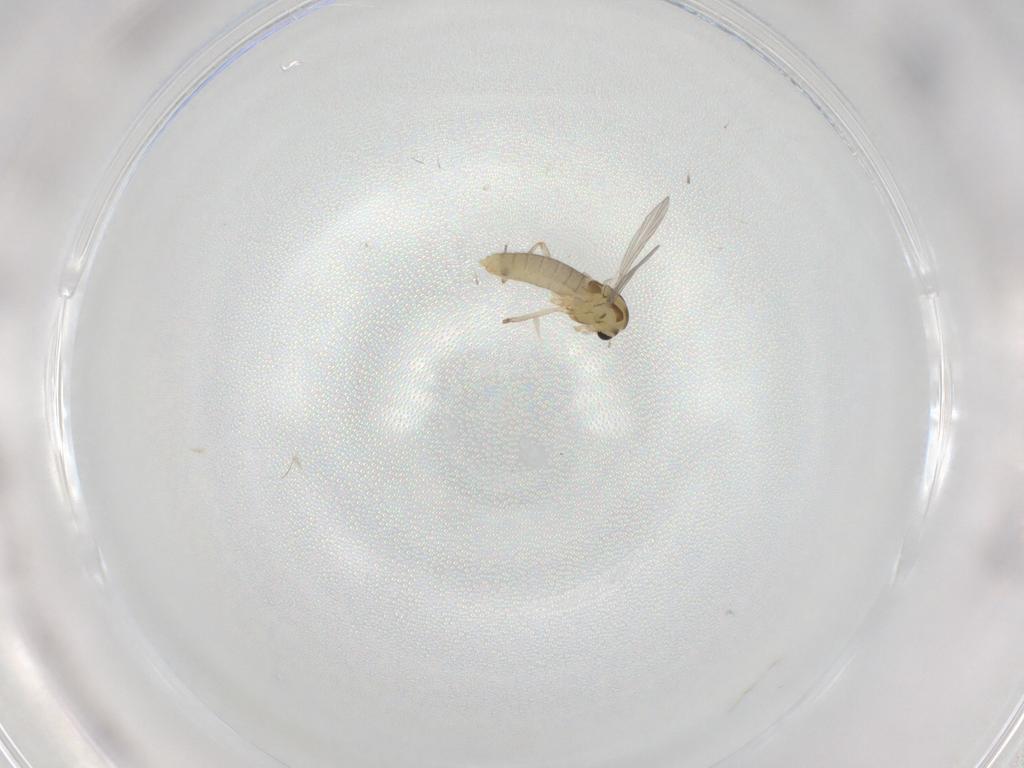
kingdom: Animalia
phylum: Arthropoda
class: Insecta
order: Diptera
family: Chironomidae
